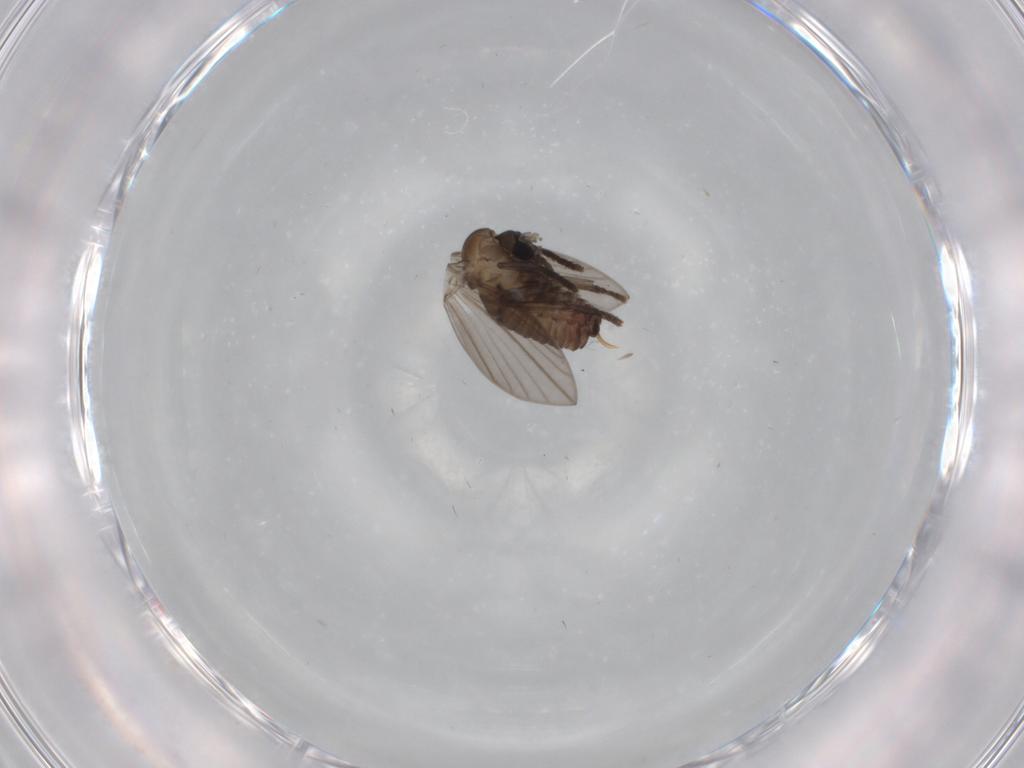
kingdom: Animalia
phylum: Arthropoda
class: Insecta
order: Diptera
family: Psychodidae
